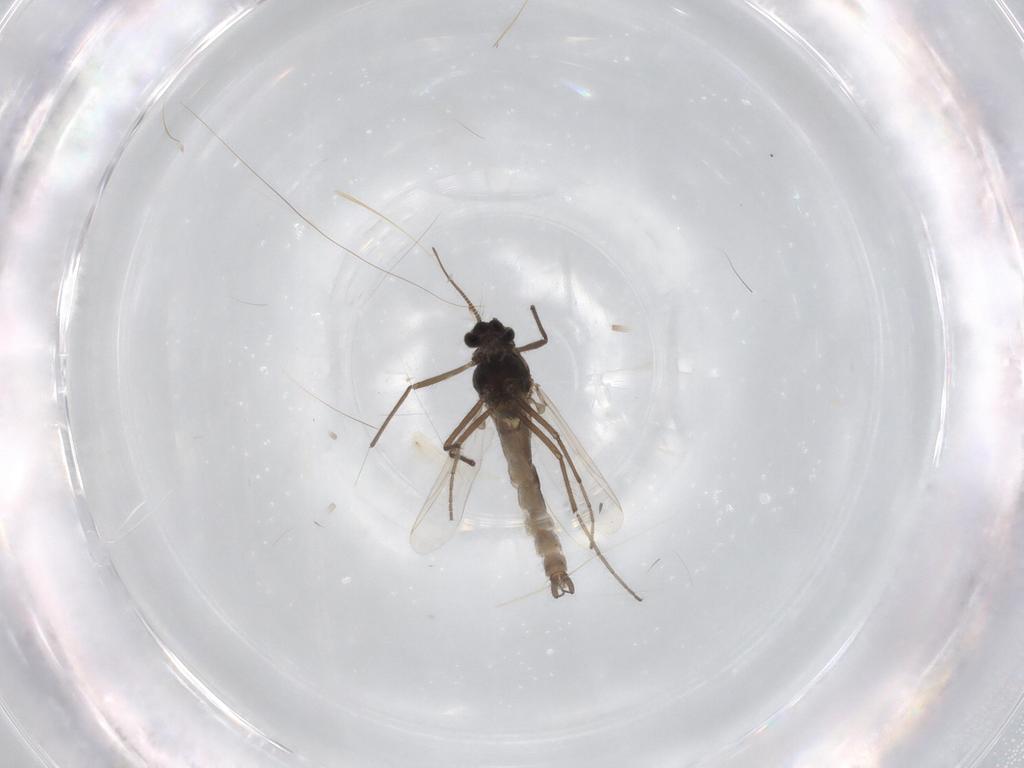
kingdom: Animalia
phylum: Arthropoda
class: Insecta
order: Diptera
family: Chironomidae
